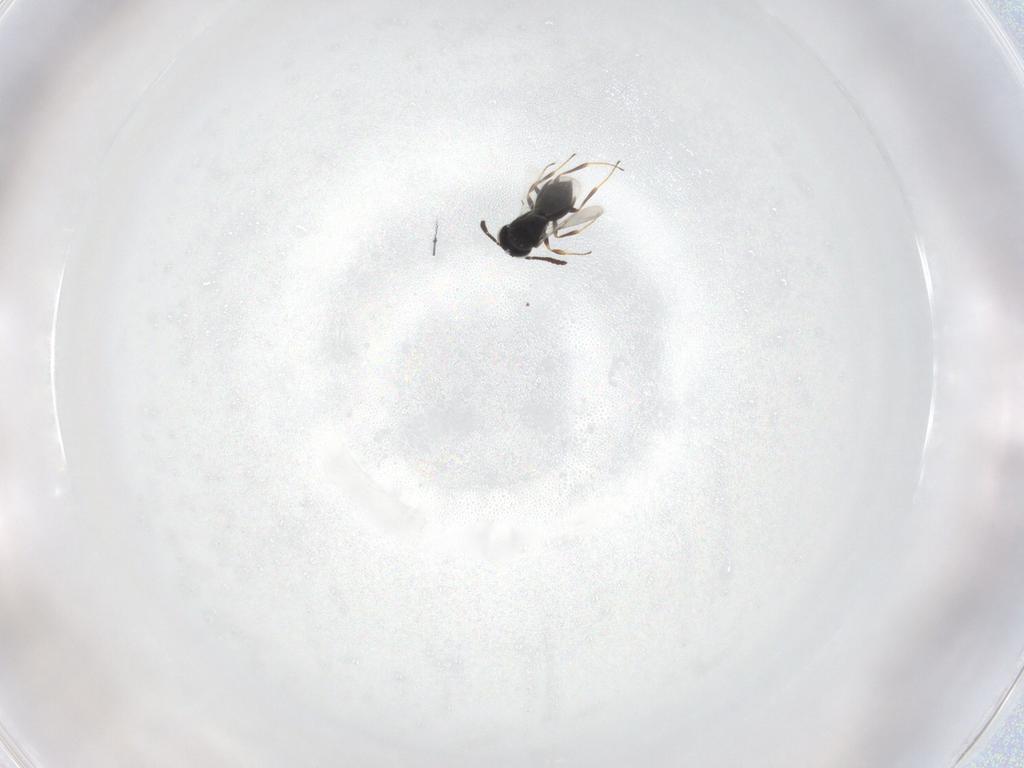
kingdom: Animalia
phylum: Arthropoda
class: Insecta
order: Hymenoptera
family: Scelionidae
